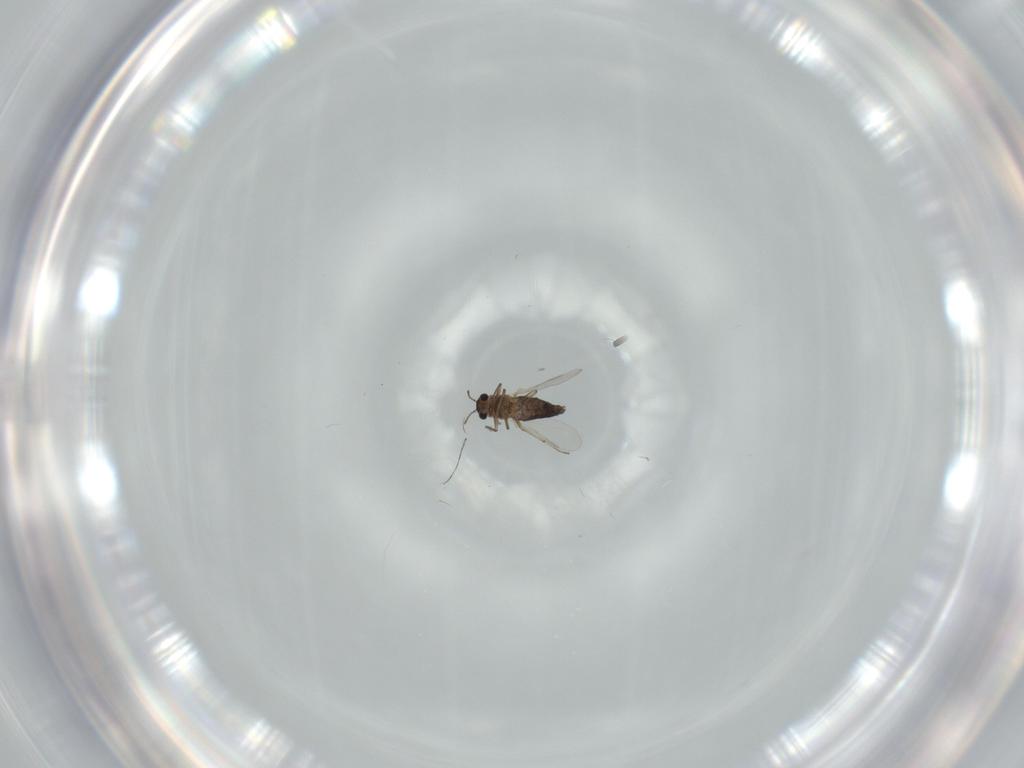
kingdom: Animalia
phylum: Arthropoda
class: Insecta
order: Diptera
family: Chironomidae
